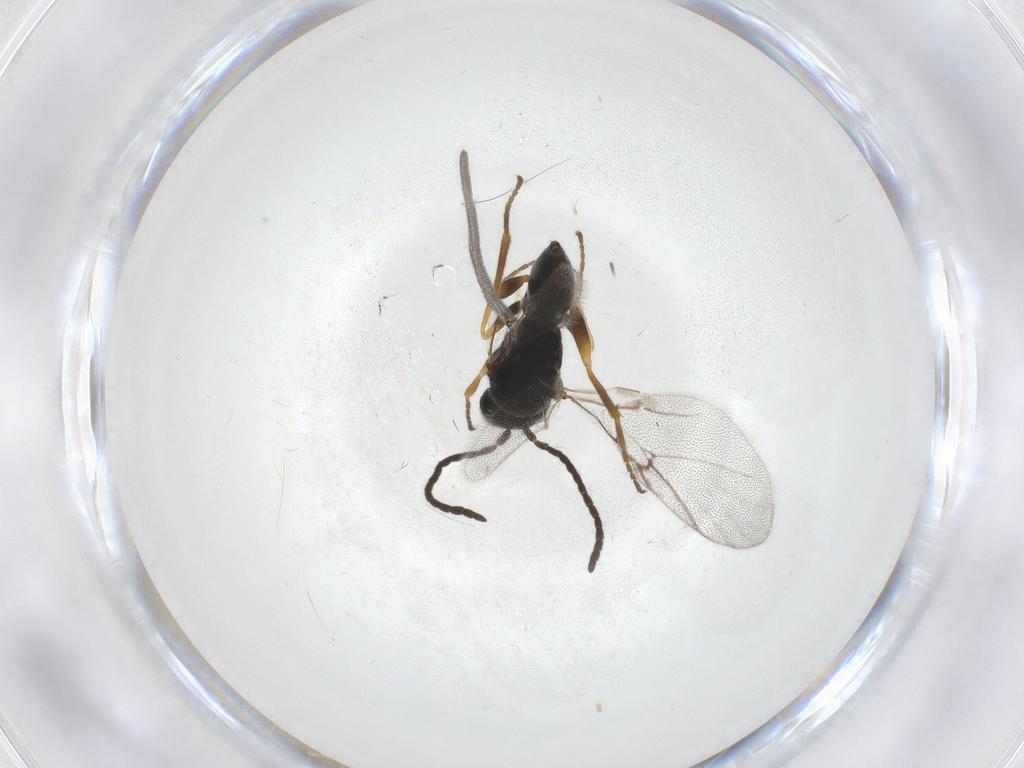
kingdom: Animalia
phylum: Arthropoda
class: Insecta
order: Hymenoptera
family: Cynipidae
